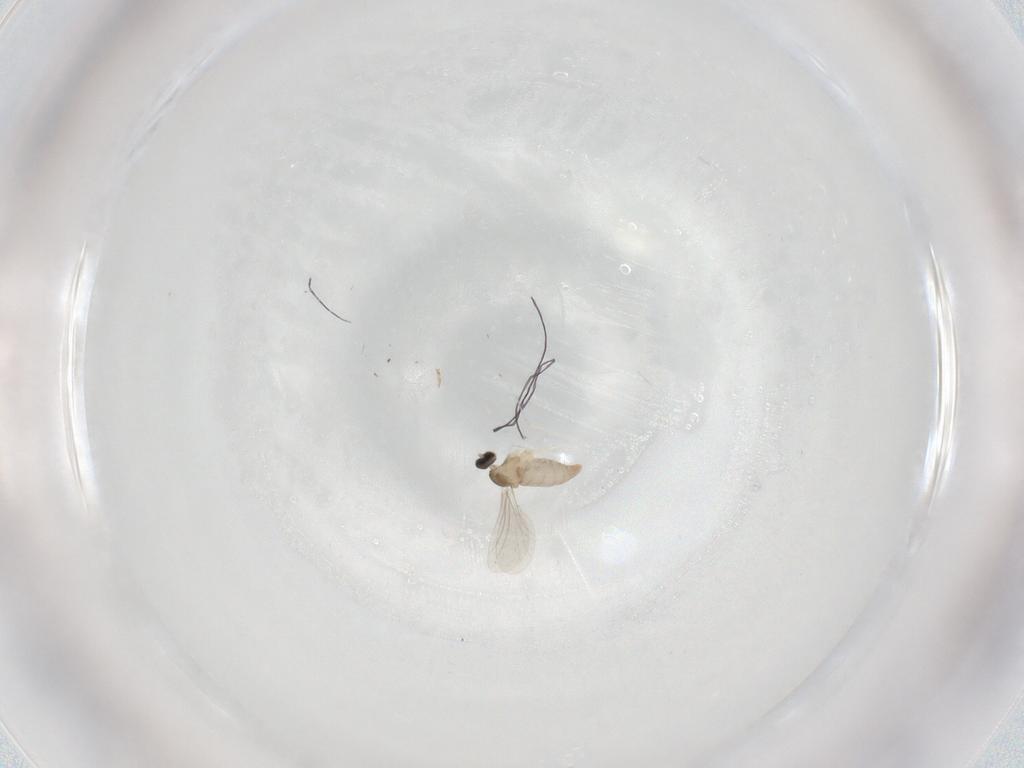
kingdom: Animalia
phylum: Arthropoda
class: Insecta
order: Diptera
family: Cecidomyiidae
